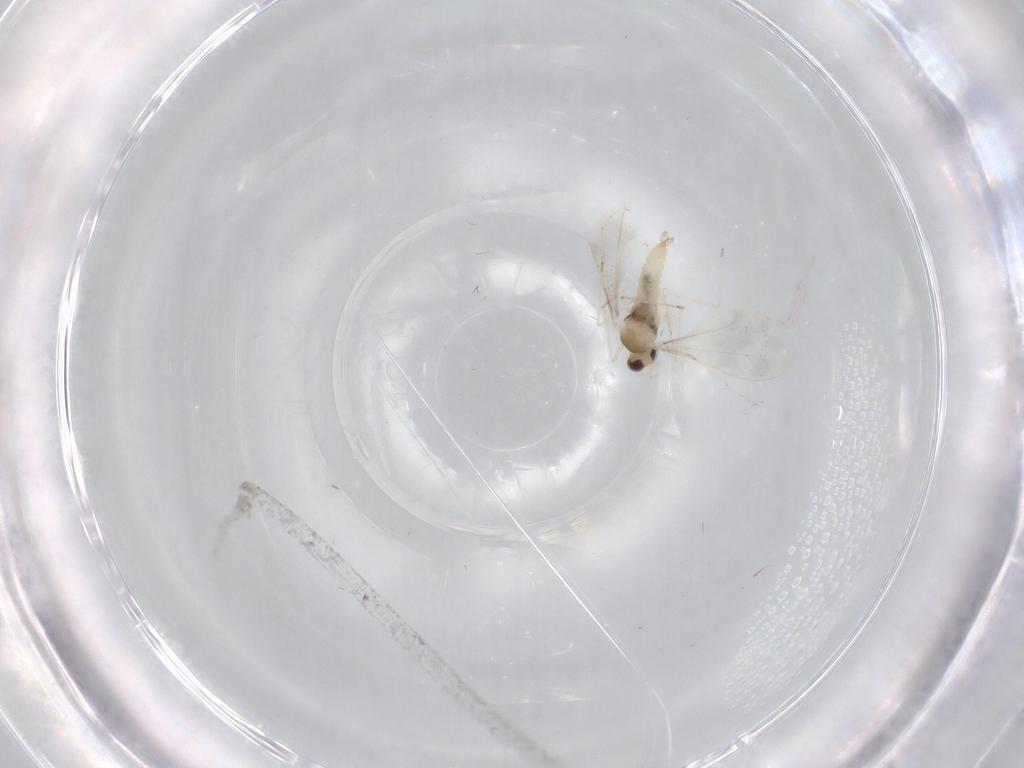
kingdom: Animalia
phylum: Arthropoda
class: Insecta
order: Diptera
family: Cecidomyiidae
